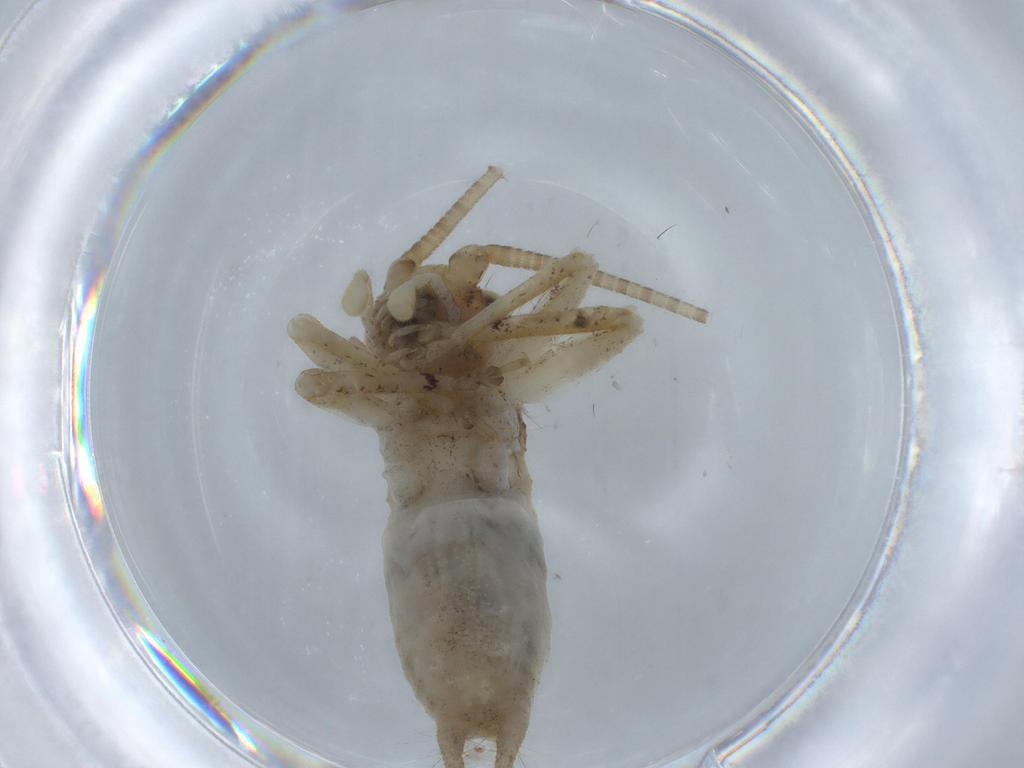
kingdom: Animalia
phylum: Arthropoda
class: Insecta
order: Orthoptera
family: Gryllidae
